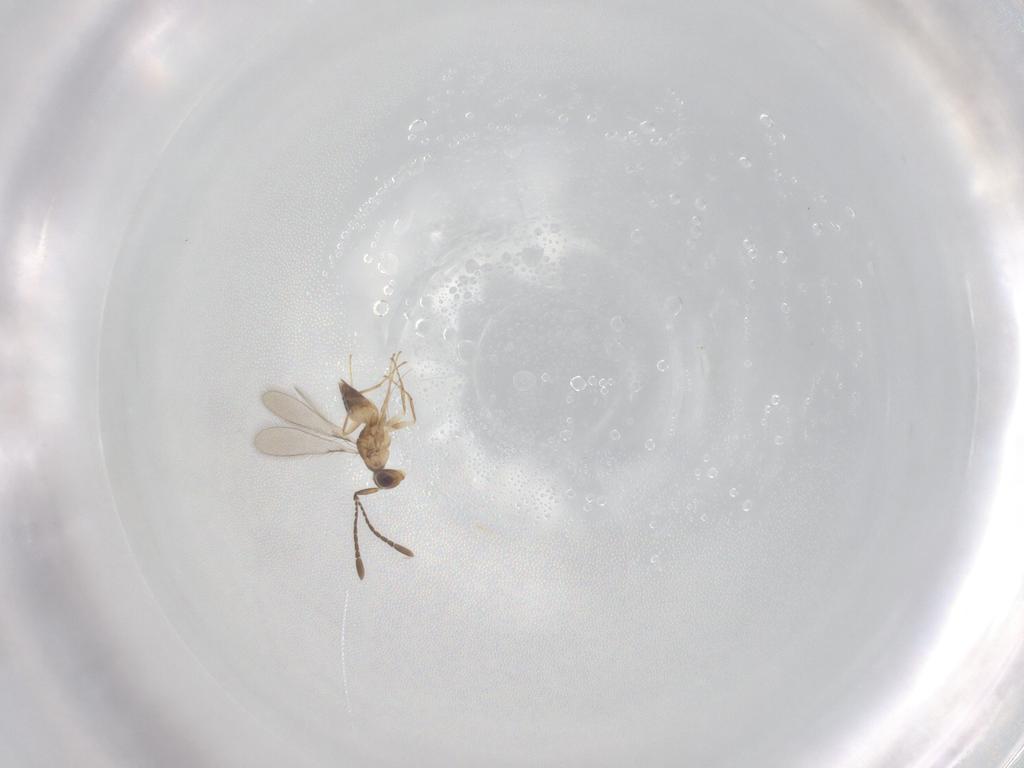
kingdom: Animalia
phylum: Arthropoda
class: Insecta
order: Hymenoptera
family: Mymaridae
